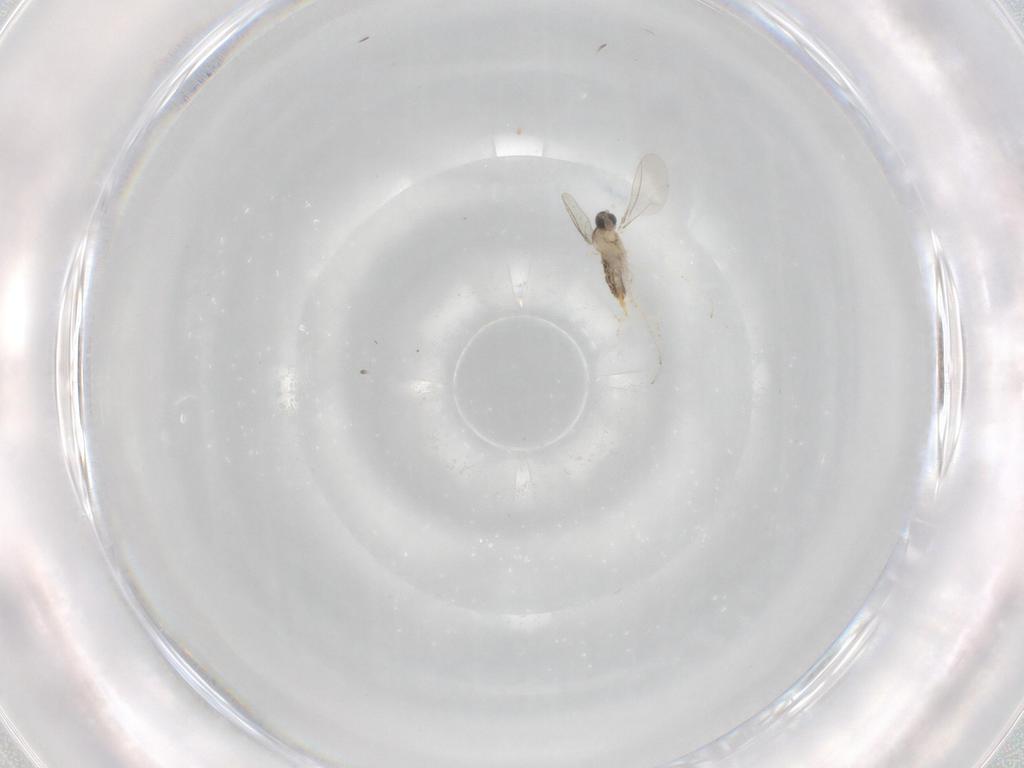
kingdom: Animalia
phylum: Arthropoda
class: Insecta
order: Diptera
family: Cecidomyiidae
